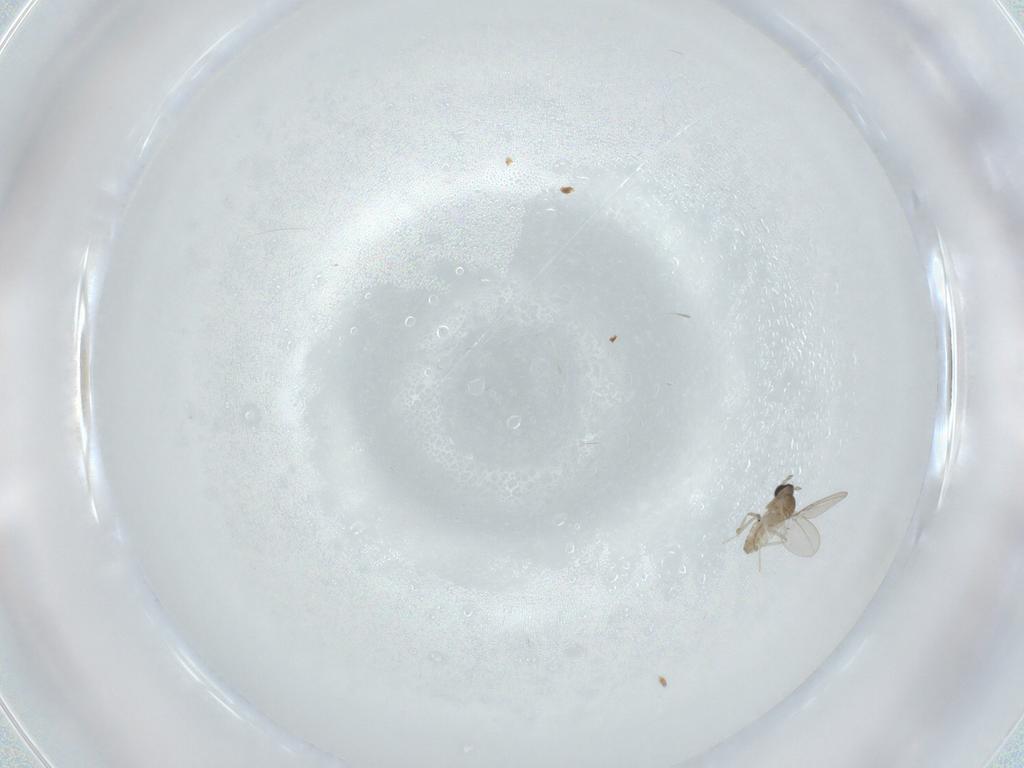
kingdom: Animalia
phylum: Arthropoda
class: Insecta
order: Diptera
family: Cecidomyiidae
